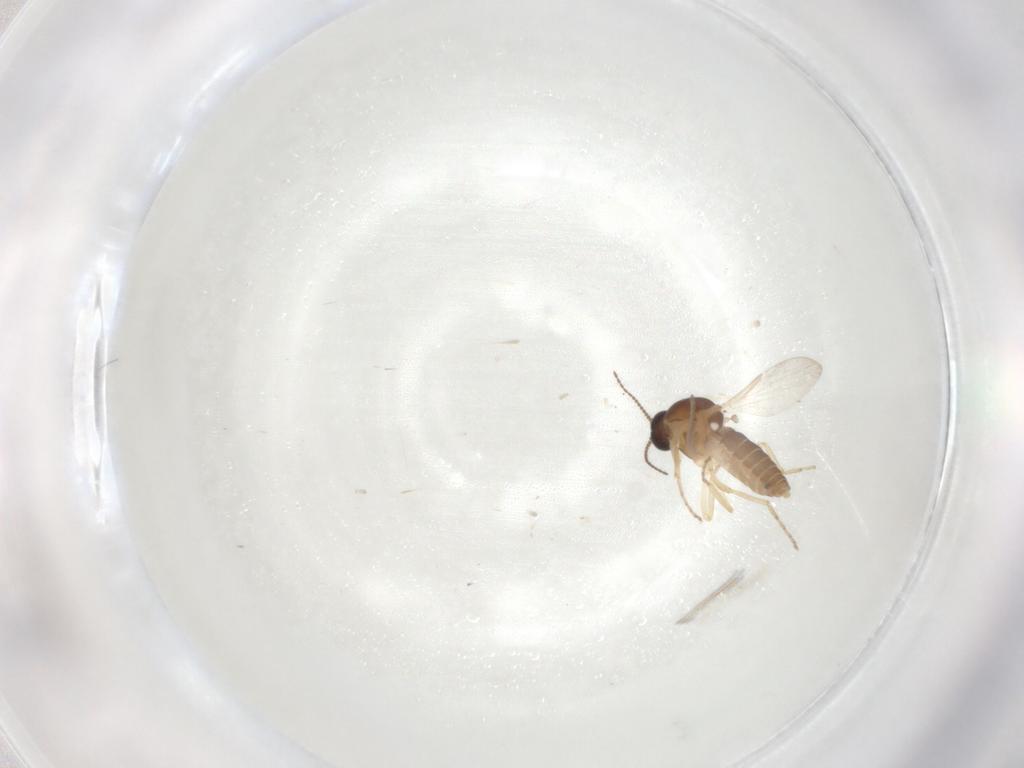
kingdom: Animalia
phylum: Arthropoda
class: Insecta
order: Diptera
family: Ceratopogonidae
